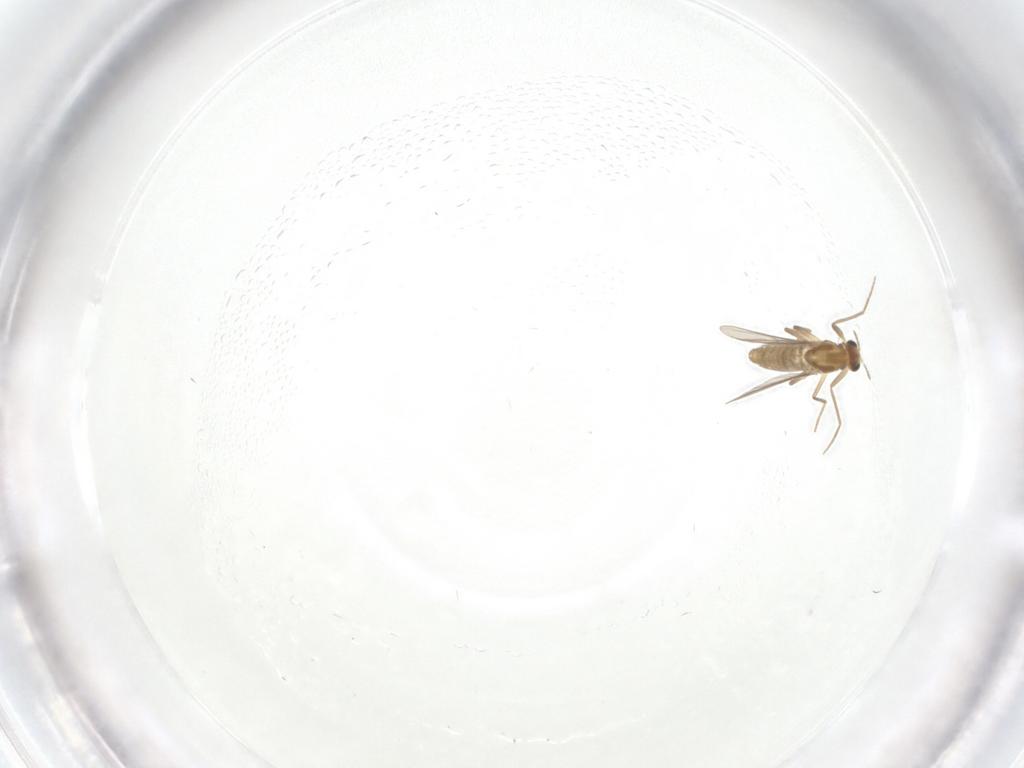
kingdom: Animalia
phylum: Arthropoda
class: Insecta
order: Diptera
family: Chironomidae
